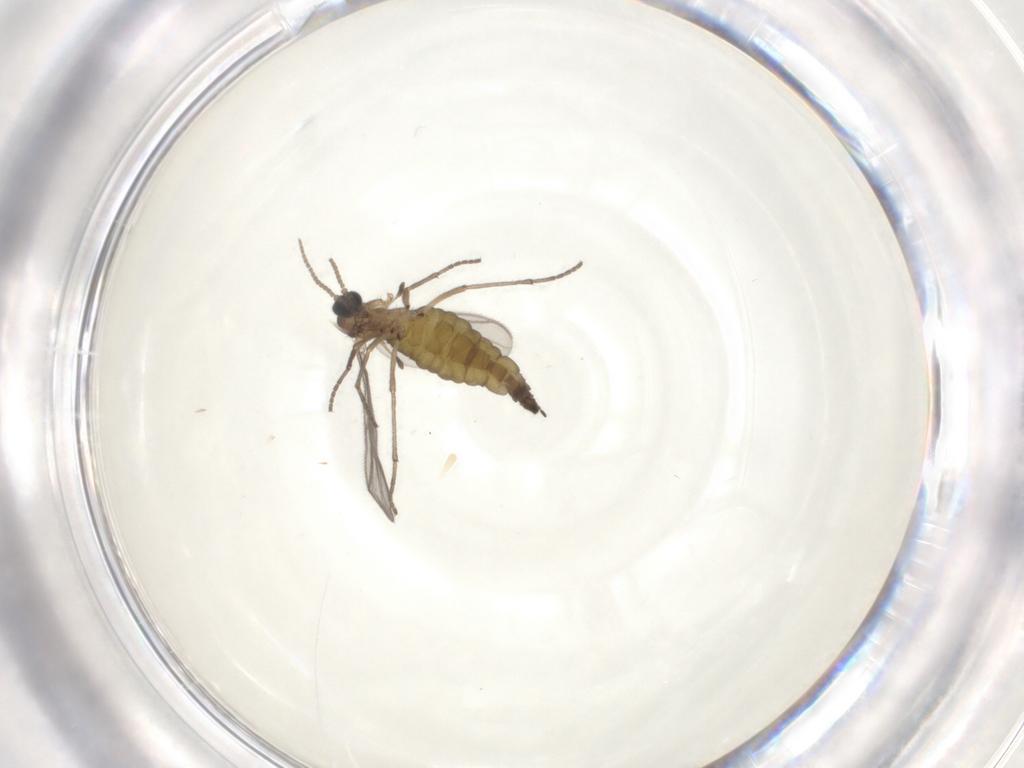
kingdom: Animalia
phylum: Arthropoda
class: Insecta
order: Diptera
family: Sciaridae
